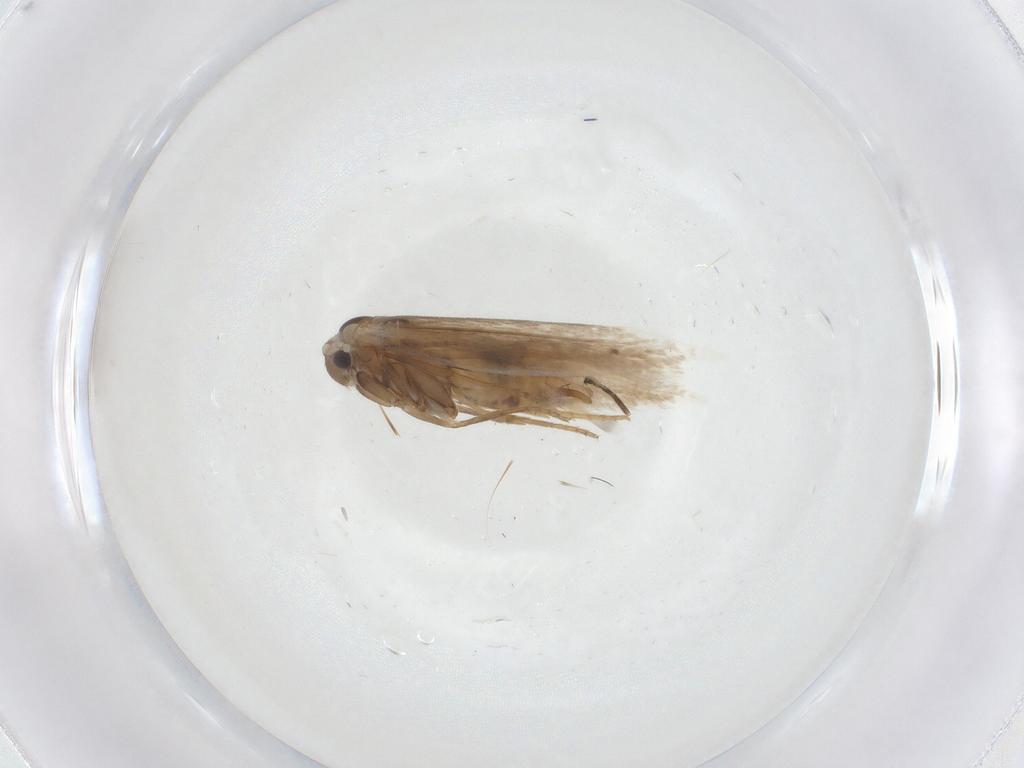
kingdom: Animalia
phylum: Arthropoda
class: Insecta
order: Lepidoptera
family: Bucculatricidae
